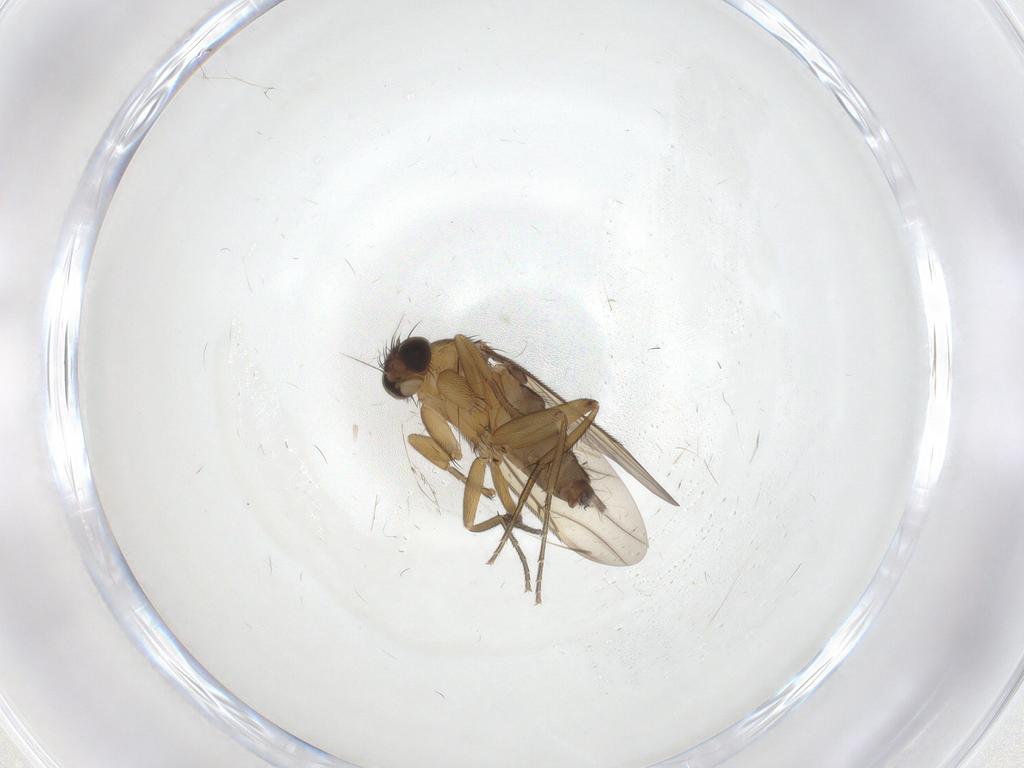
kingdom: Animalia
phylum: Arthropoda
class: Insecta
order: Diptera
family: Phoridae
